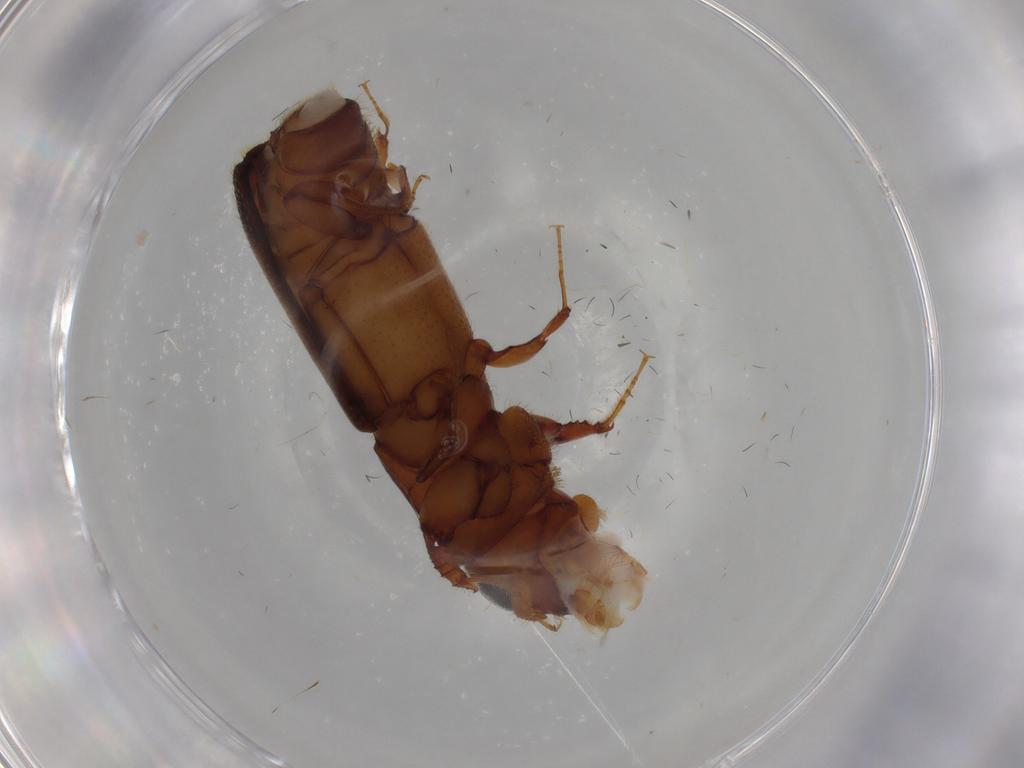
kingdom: Animalia
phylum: Arthropoda
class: Insecta
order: Coleoptera
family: Curculionidae
